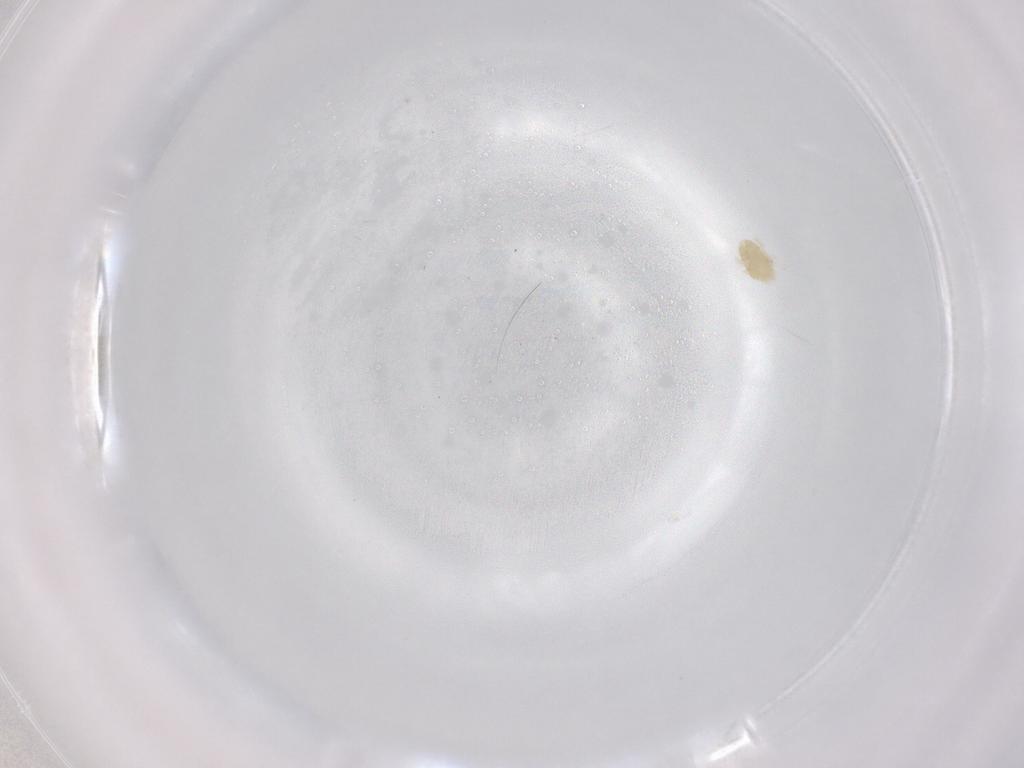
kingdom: Animalia
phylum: Arthropoda
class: Arachnida
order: Trombidiformes
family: Eupodidae
